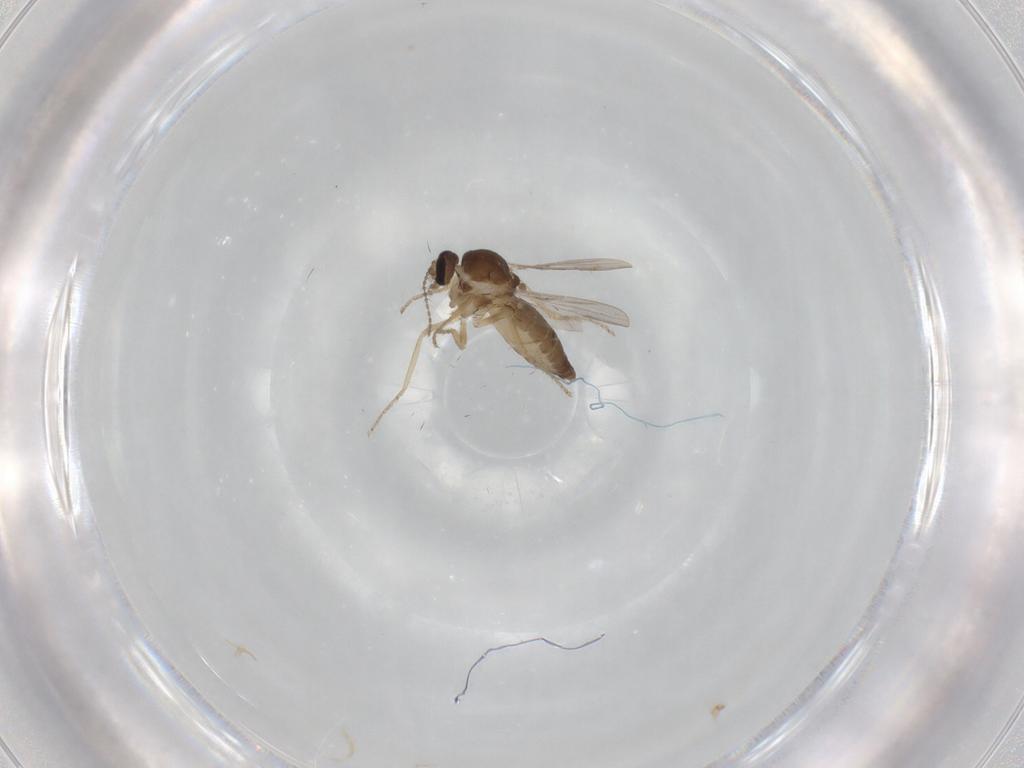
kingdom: Animalia
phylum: Arthropoda
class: Insecta
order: Diptera
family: Ceratopogonidae
